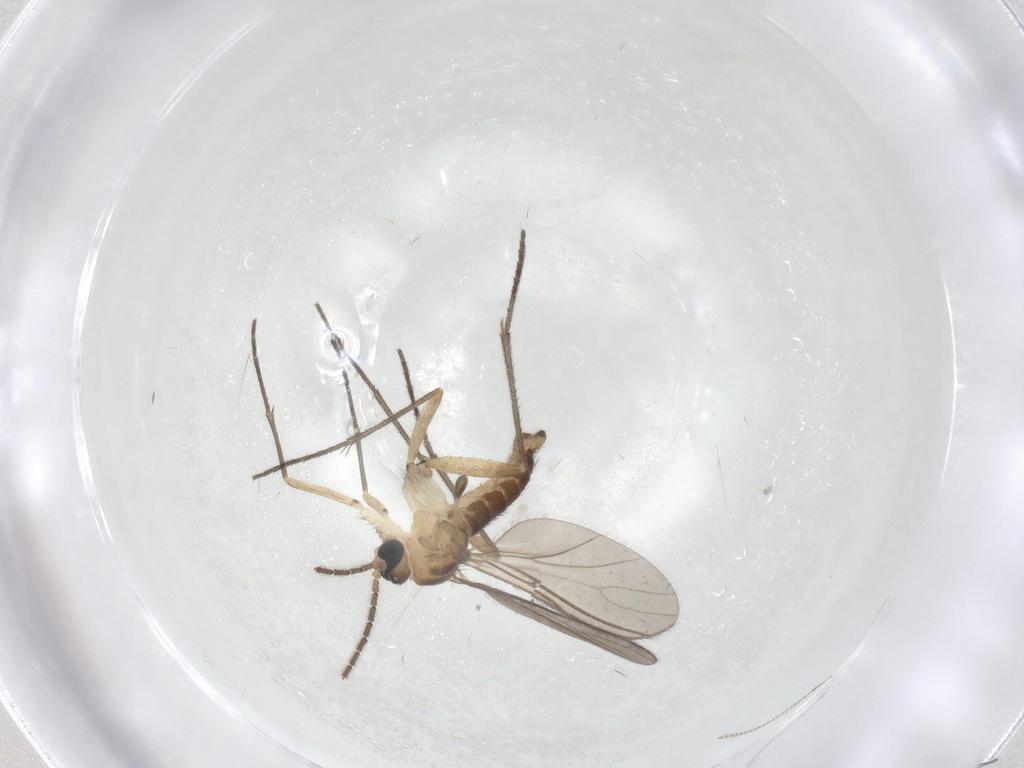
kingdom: Animalia
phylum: Arthropoda
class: Insecta
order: Diptera
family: Sciaridae
